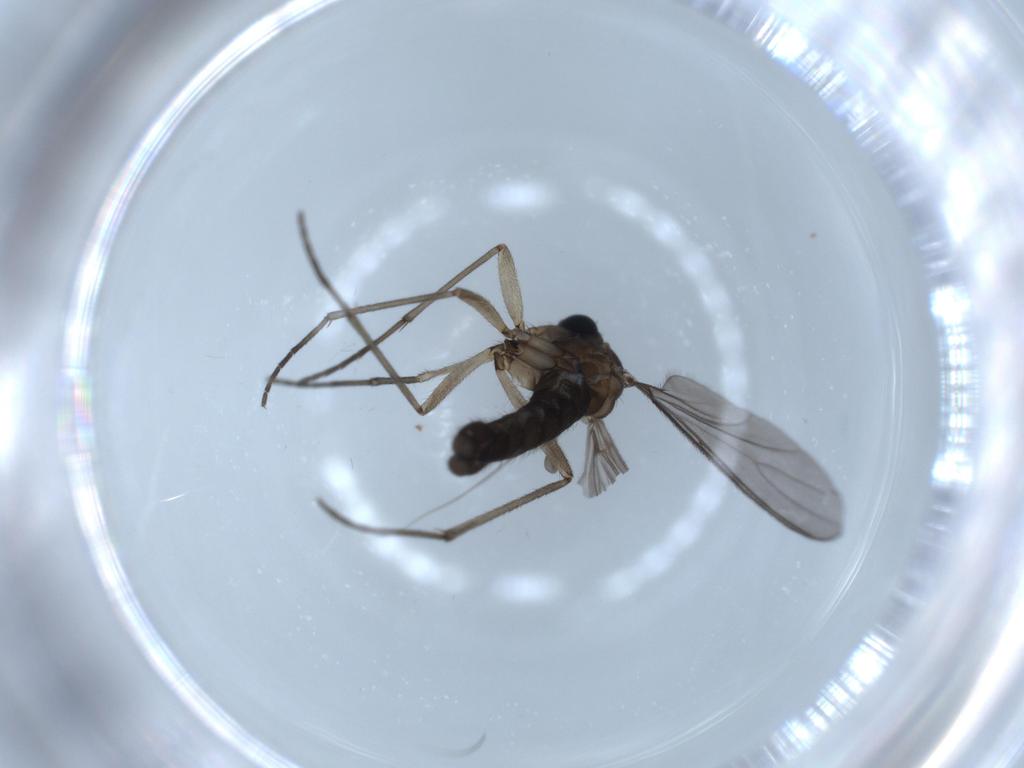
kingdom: Animalia
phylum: Arthropoda
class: Insecta
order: Diptera
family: Sciaridae
